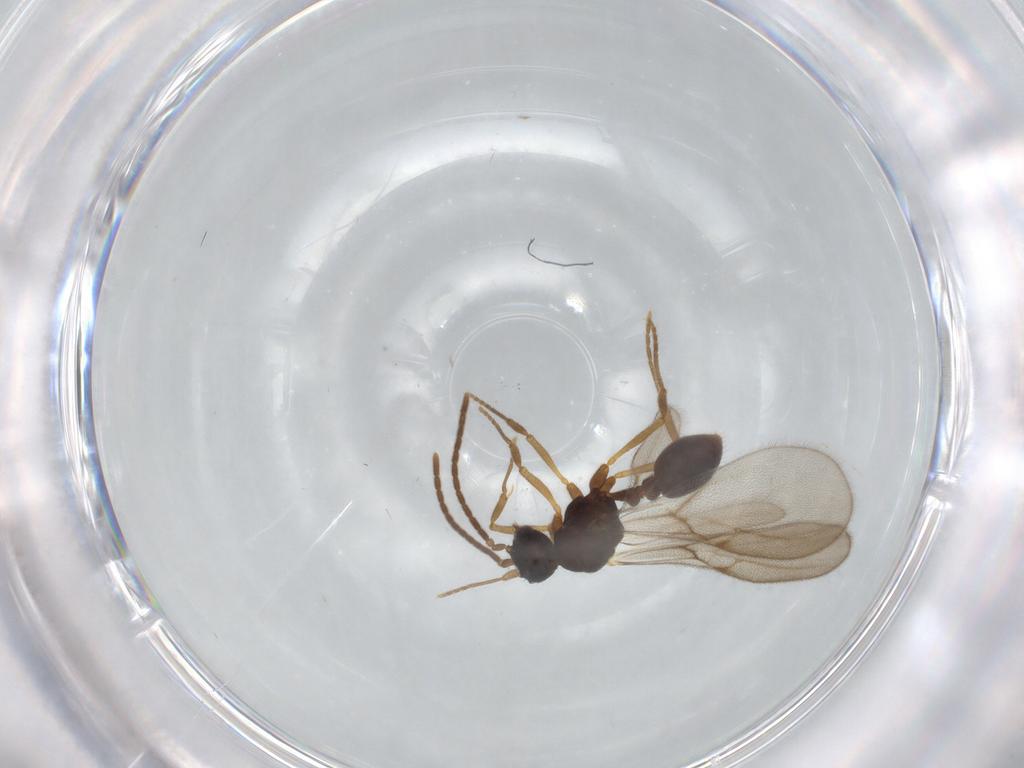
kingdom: Animalia
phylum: Arthropoda
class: Insecta
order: Hymenoptera
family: Formicidae
